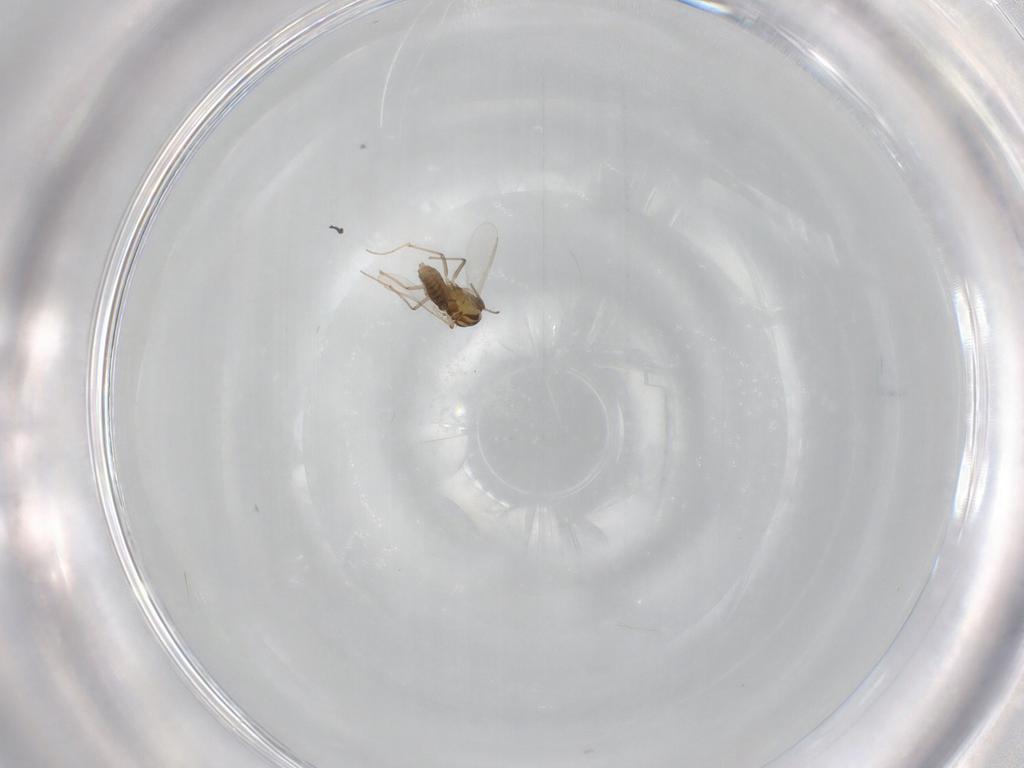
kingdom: Animalia
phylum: Arthropoda
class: Insecta
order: Diptera
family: Chironomidae
